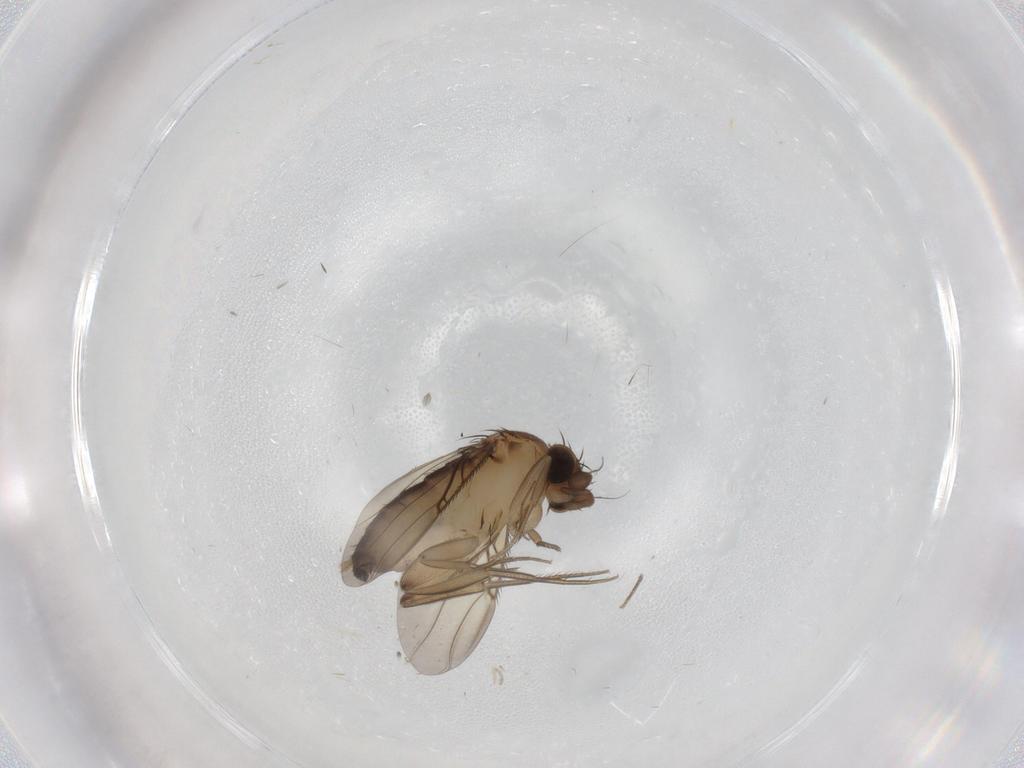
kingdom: Animalia
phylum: Arthropoda
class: Insecta
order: Diptera
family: Phoridae
